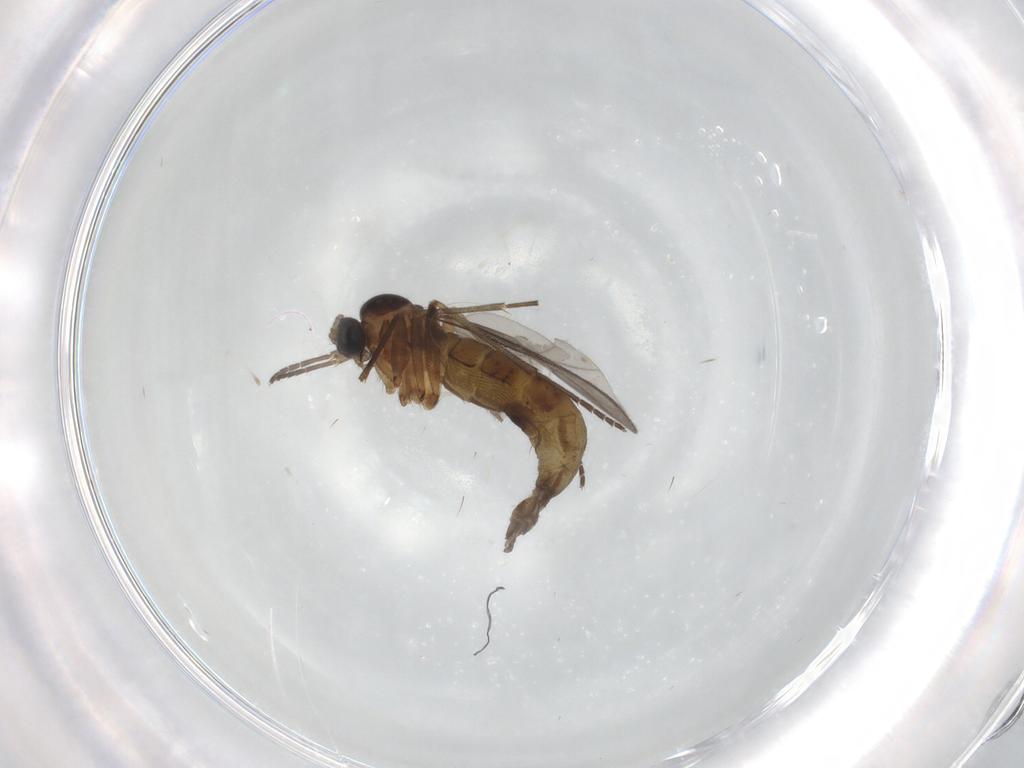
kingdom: Animalia
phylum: Arthropoda
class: Insecta
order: Diptera
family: Sciaridae
